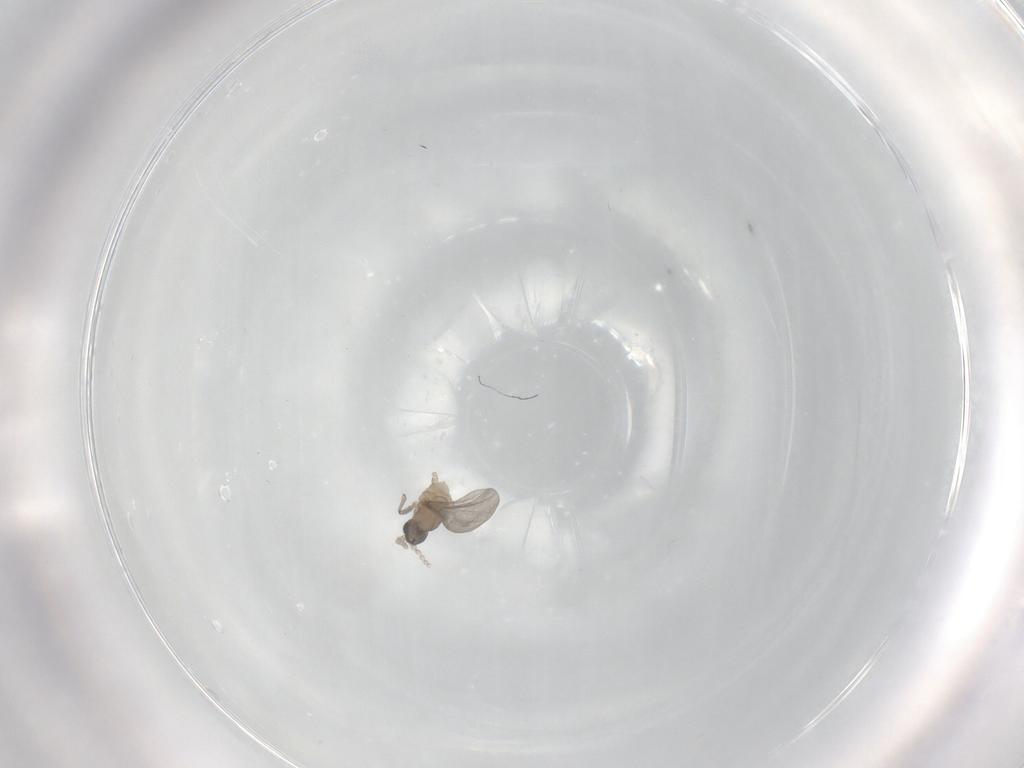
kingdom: Animalia
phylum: Arthropoda
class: Insecta
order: Diptera
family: Cecidomyiidae
